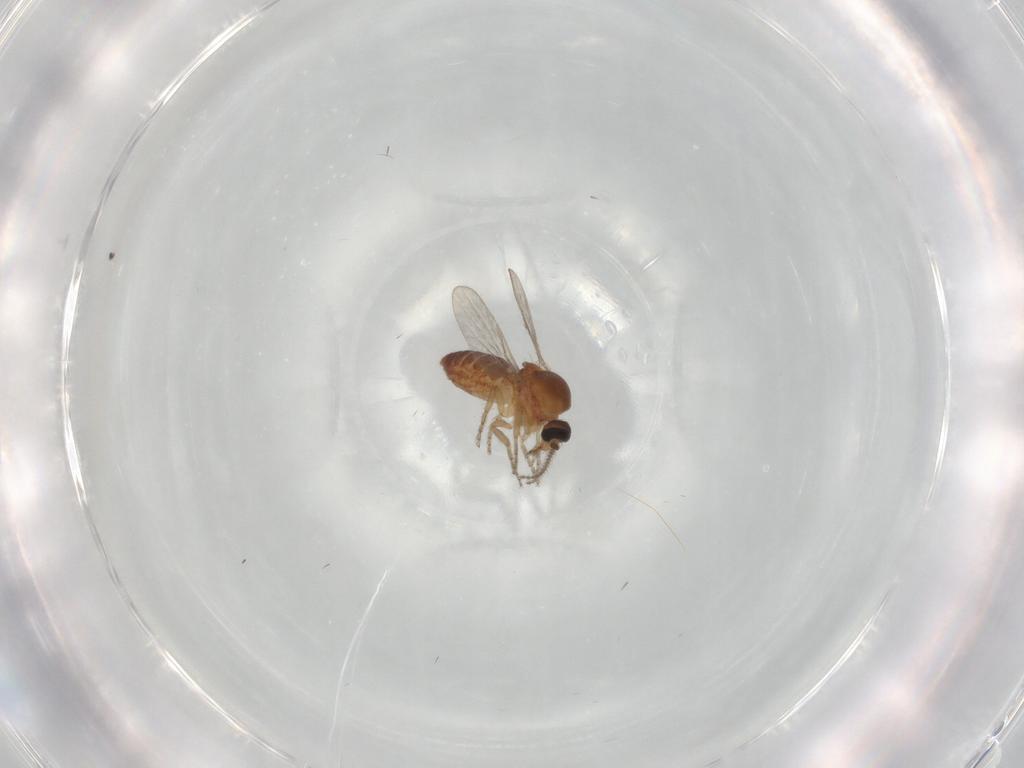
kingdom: Animalia
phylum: Arthropoda
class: Insecta
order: Diptera
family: Ceratopogonidae
